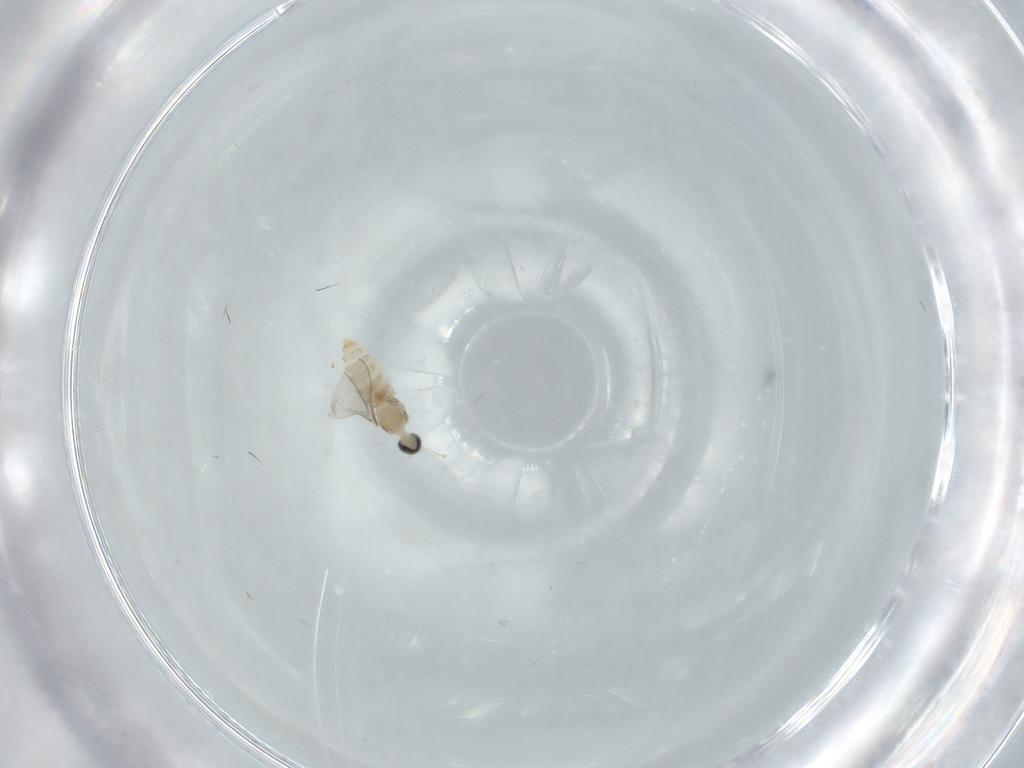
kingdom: Animalia
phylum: Arthropoda
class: Insecta
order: Diptera
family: Cecidomyiidae
